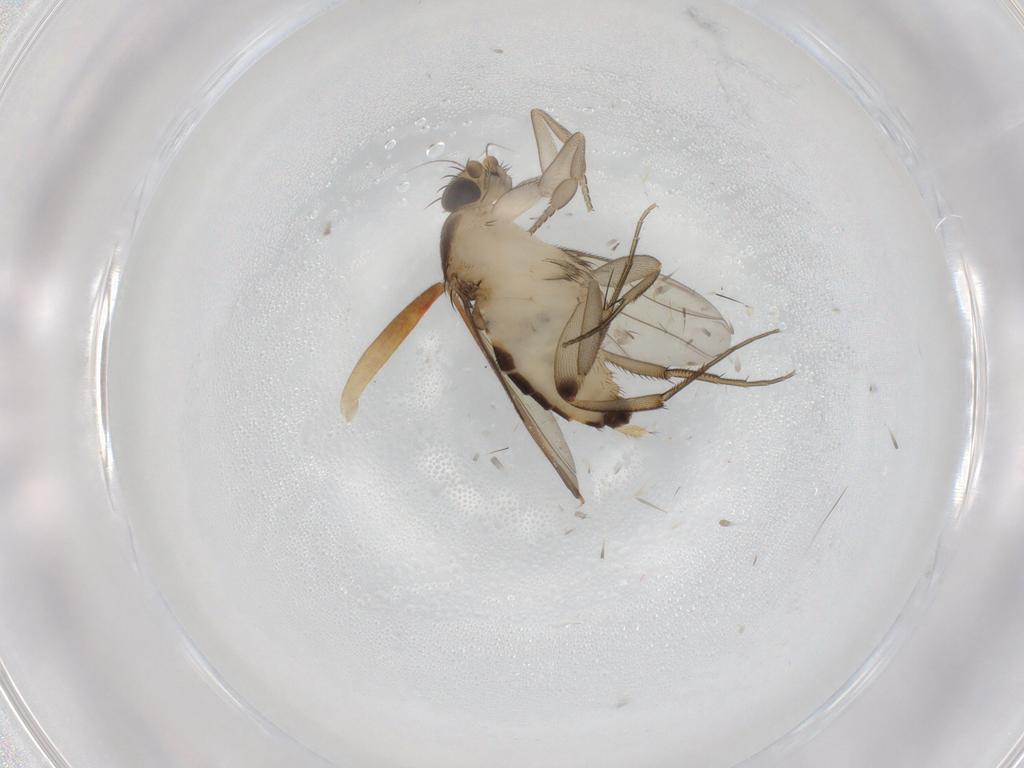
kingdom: Animalia
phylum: Arthropoda
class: Insecta
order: Diptera
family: Phoridae
